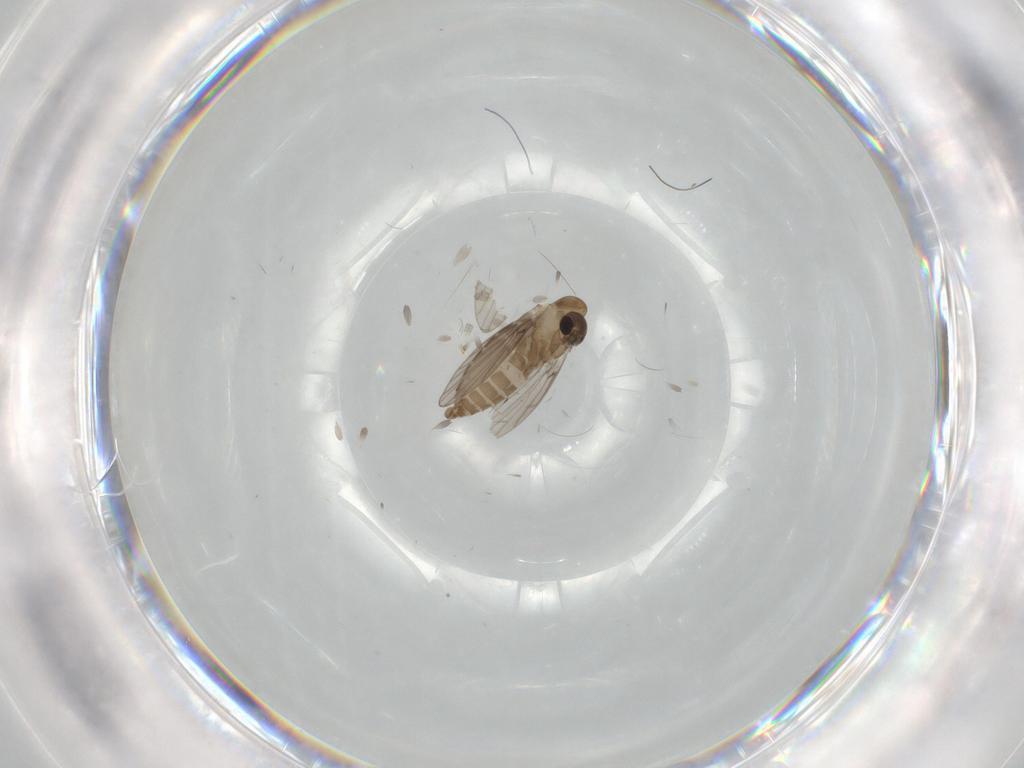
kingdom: Animalia
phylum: Arthropoda
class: Insecta
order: Diptera
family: Psychodidae
